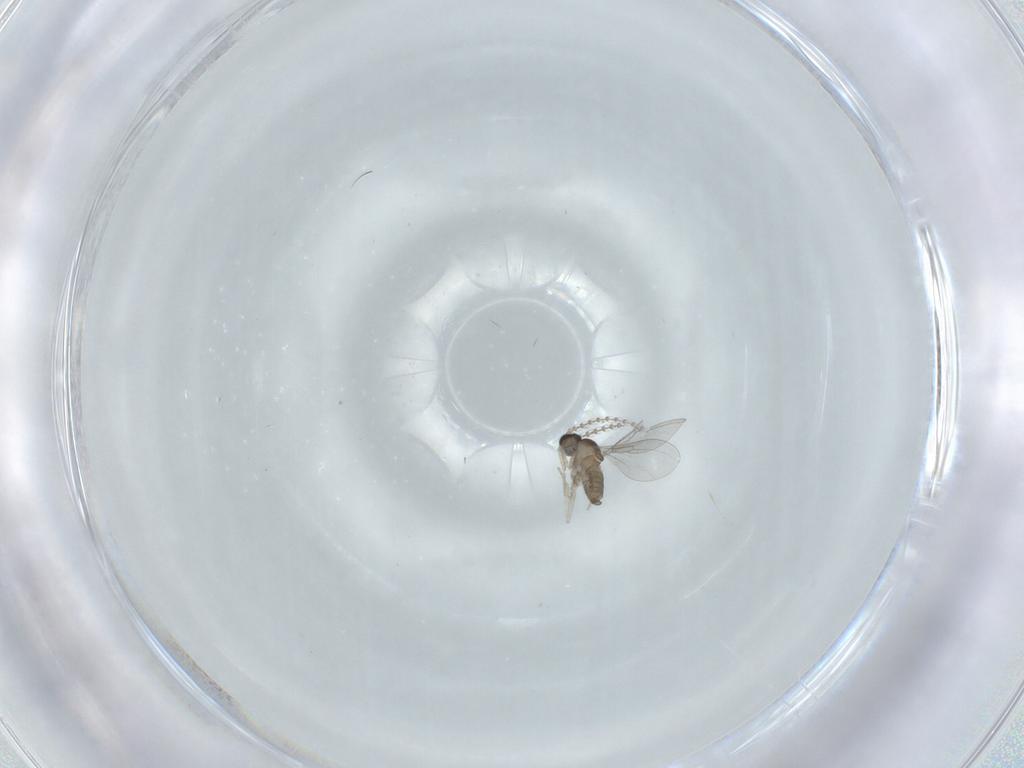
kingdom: Animalia
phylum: Arthropoda
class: Insecta
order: Diptera
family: Cecidomyiidae
